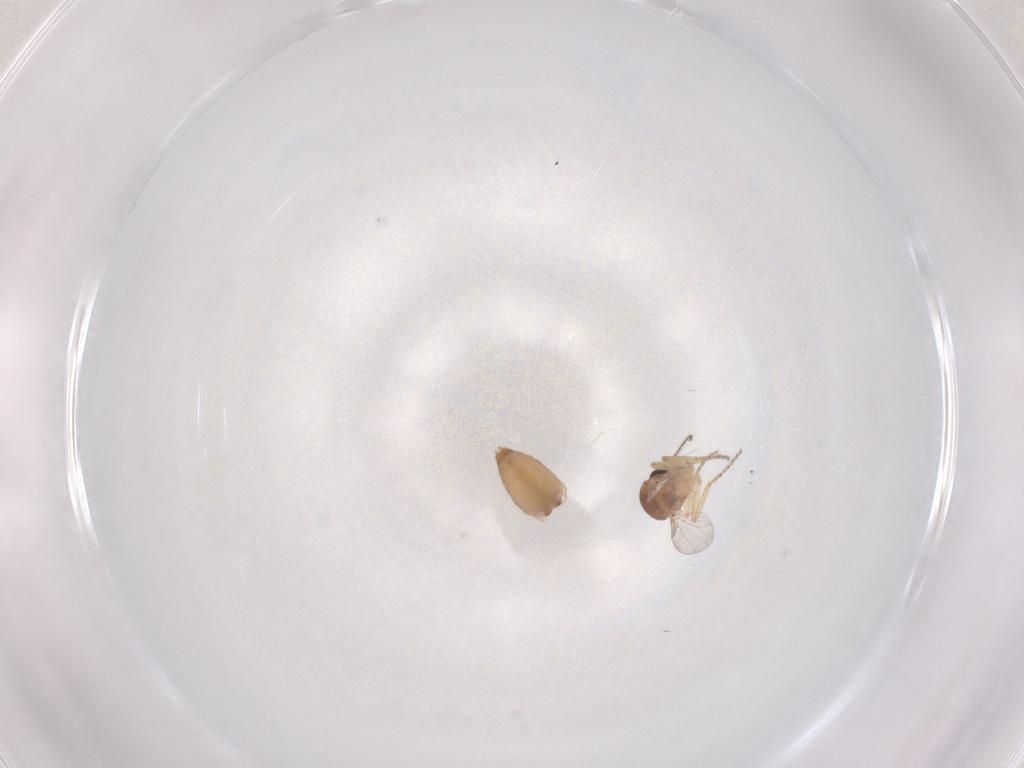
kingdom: Animalia
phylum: Arthropoda
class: Insecta
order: Diptera
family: Ceratopogonidae
